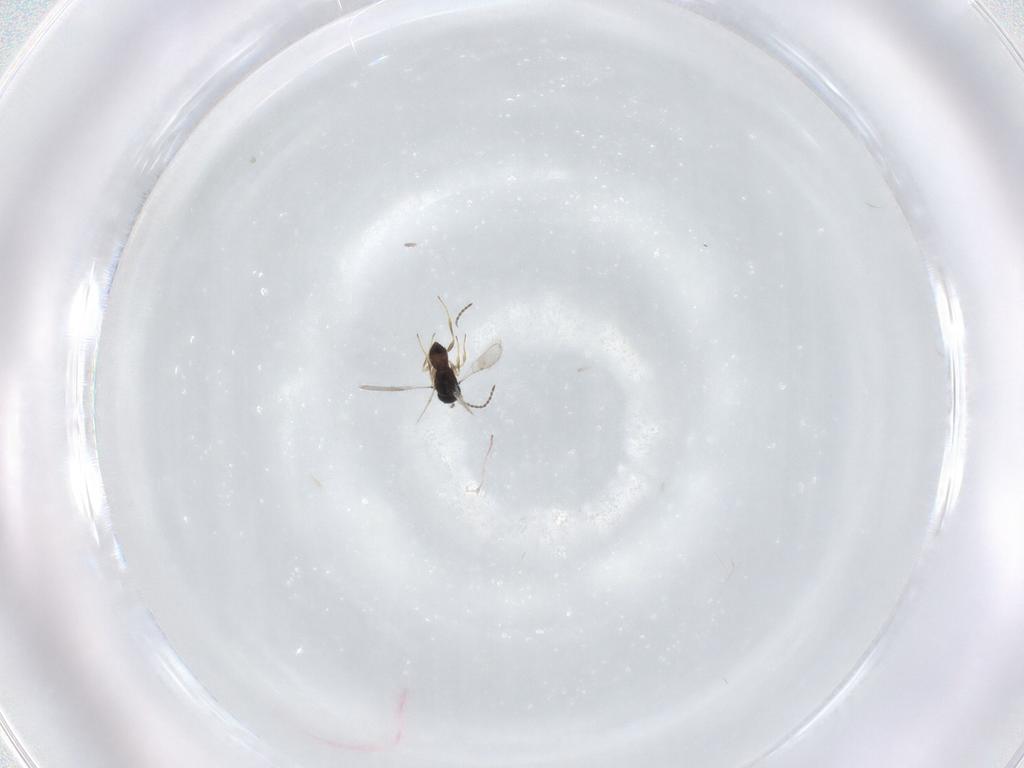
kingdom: Animalia
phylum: Arthropoda
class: Insecta
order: Hymenoptera
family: Scelionidae
